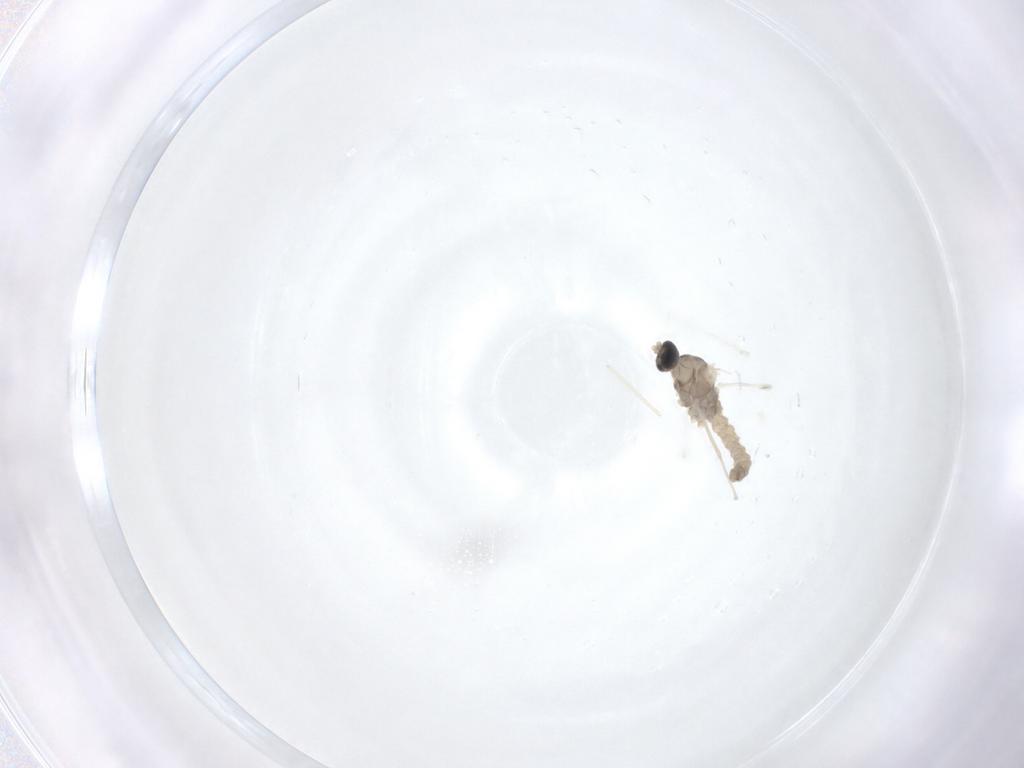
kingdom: Animalia
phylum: Arthropoda
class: Insecta
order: Diptera
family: Cecidomyiidae
